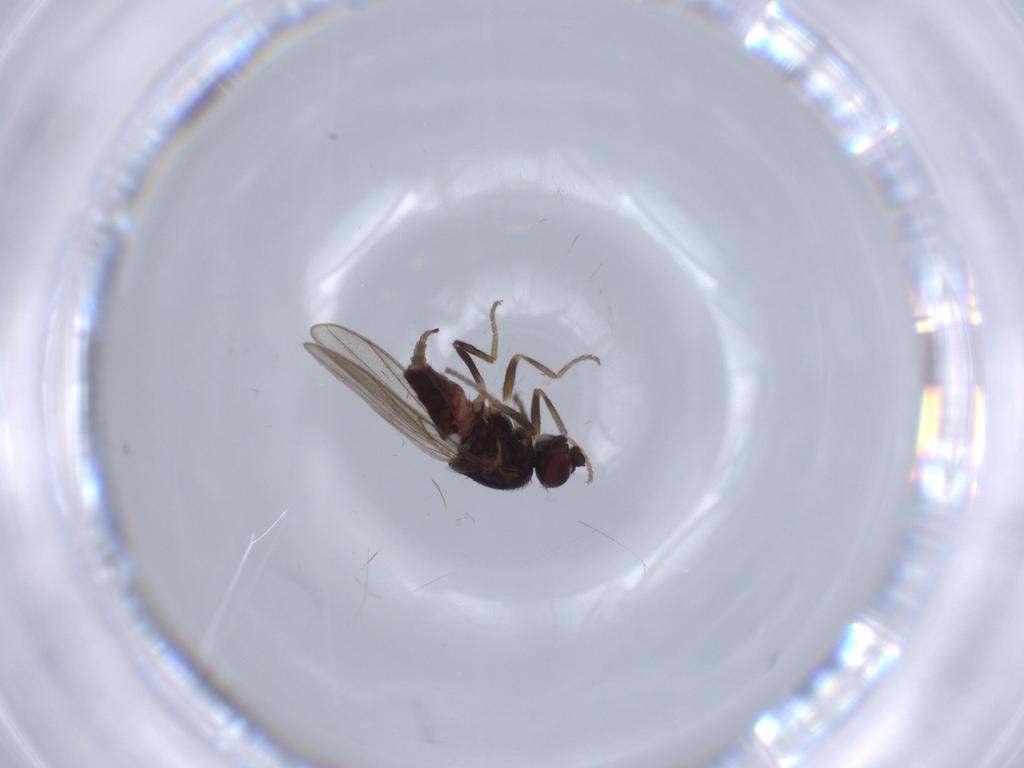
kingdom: Animalia
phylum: Arthropoda
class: Insecta
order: Diptera
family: Chloropidae
